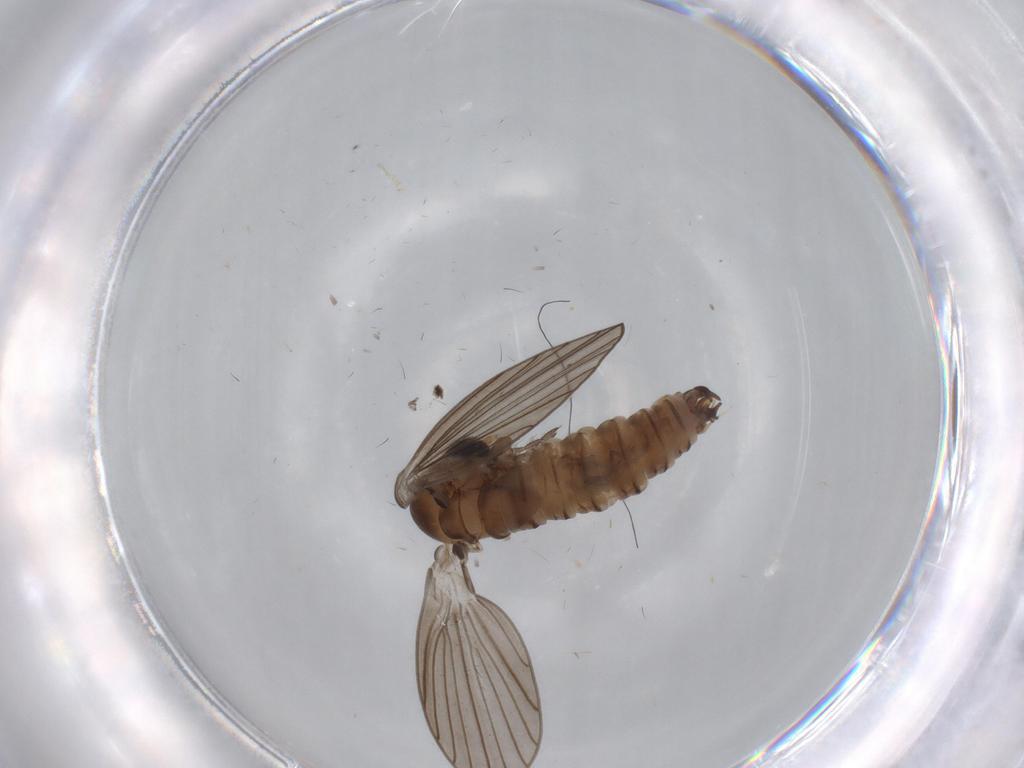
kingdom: Animalia
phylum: Arthropoda
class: Insecta
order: Diptera
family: Psychodidae
